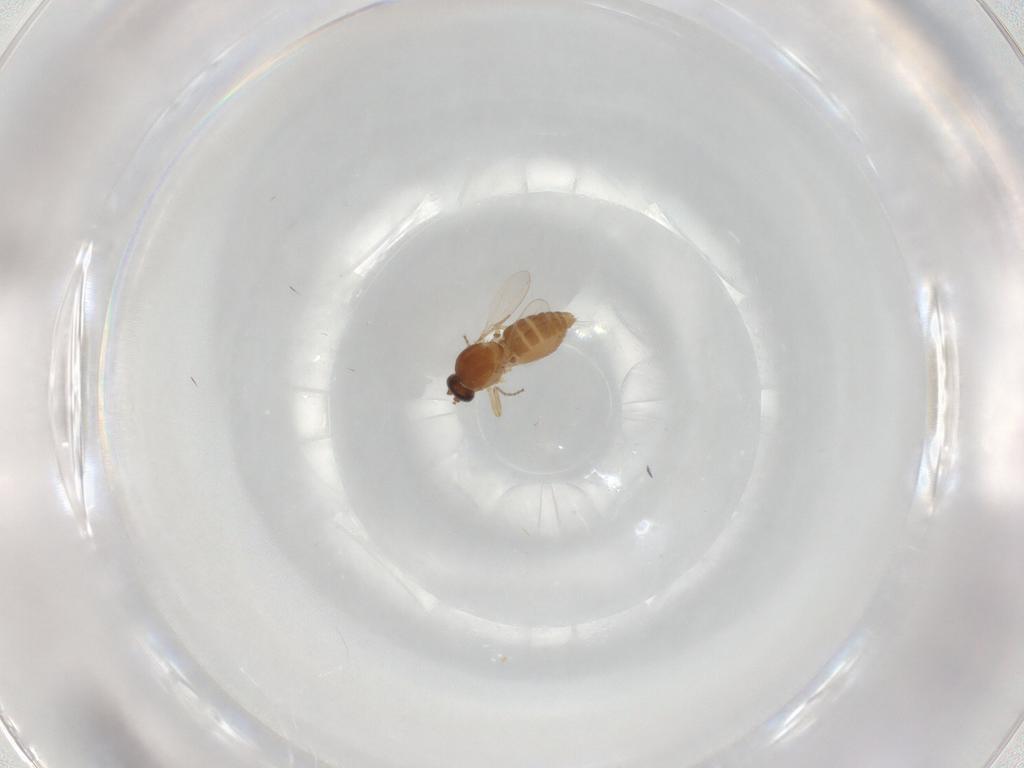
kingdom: Animalia
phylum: Arthropoda
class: Insecta
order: Diptera
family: Ceratopogonidae
